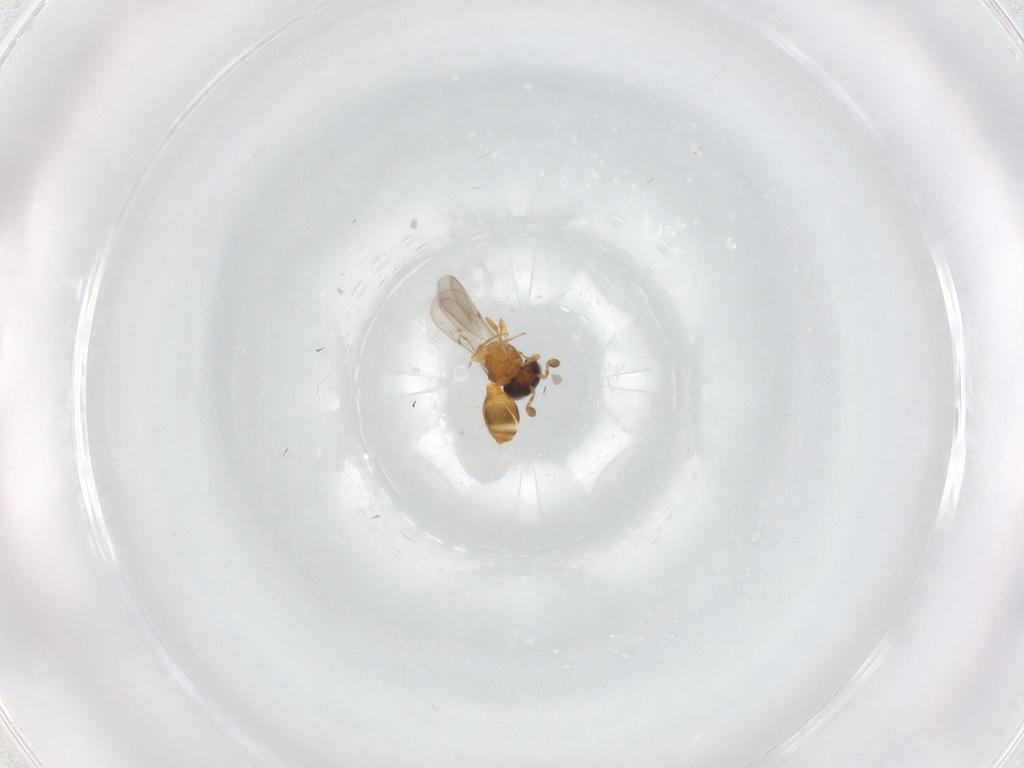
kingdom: Animalia
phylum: Arthropoda
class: Insecta
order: Hymenoptera
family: Scelionidae
